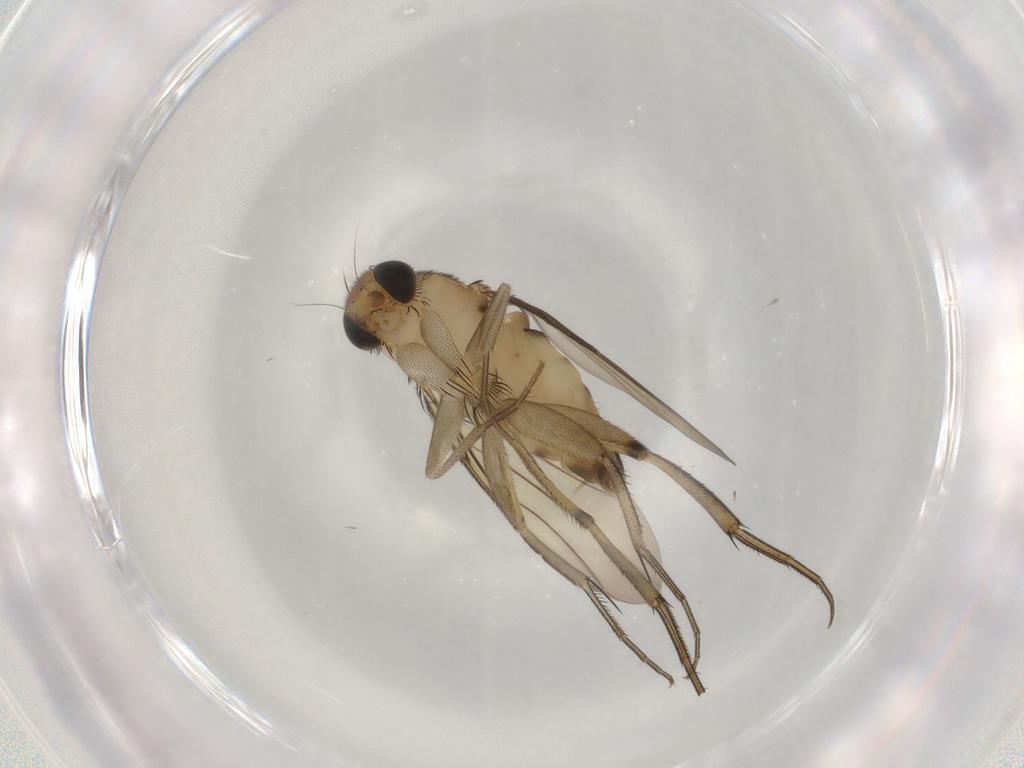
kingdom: Animalia
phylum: Arthropoda
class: Insecta
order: Diptera
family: Phoridae
